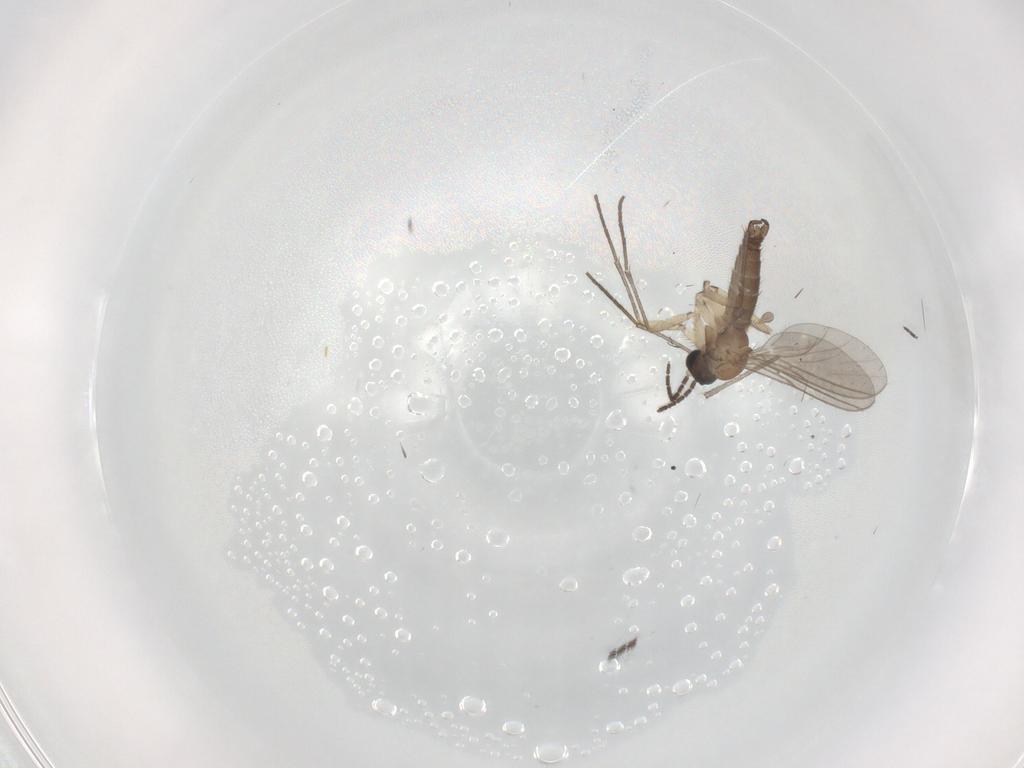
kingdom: Animalia
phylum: Arthropoda
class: Insecta
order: Diptera
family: Sciaridae
